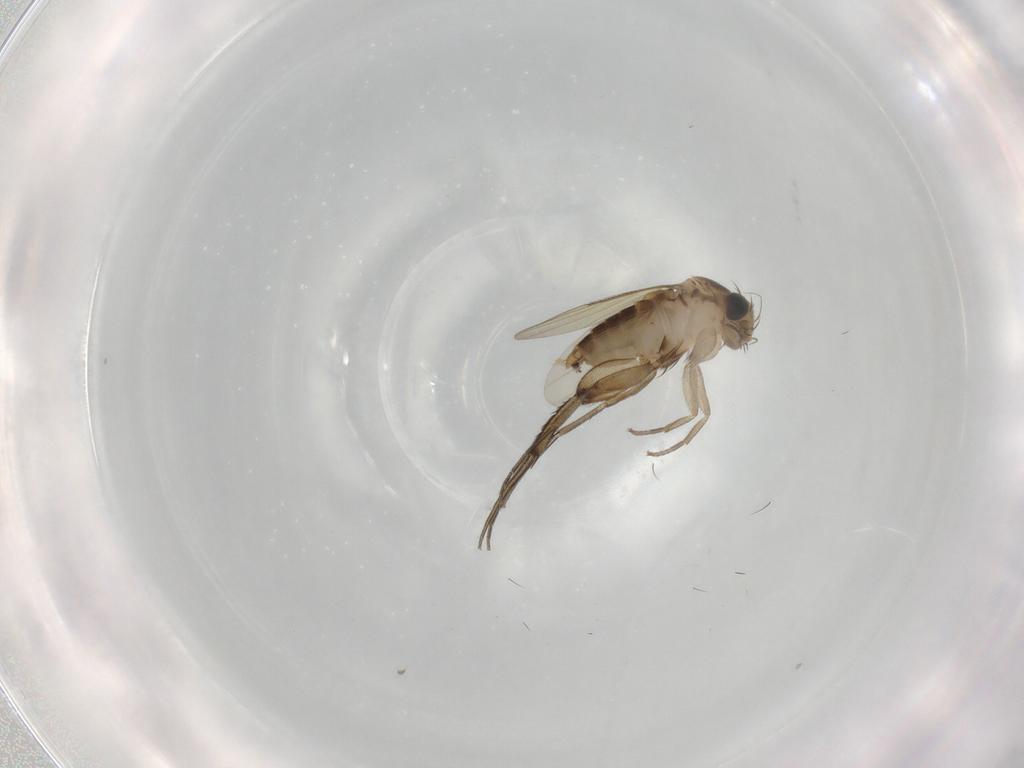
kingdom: Animalia
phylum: Arthropoda
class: Insecta
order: Diptera
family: Phoridae
